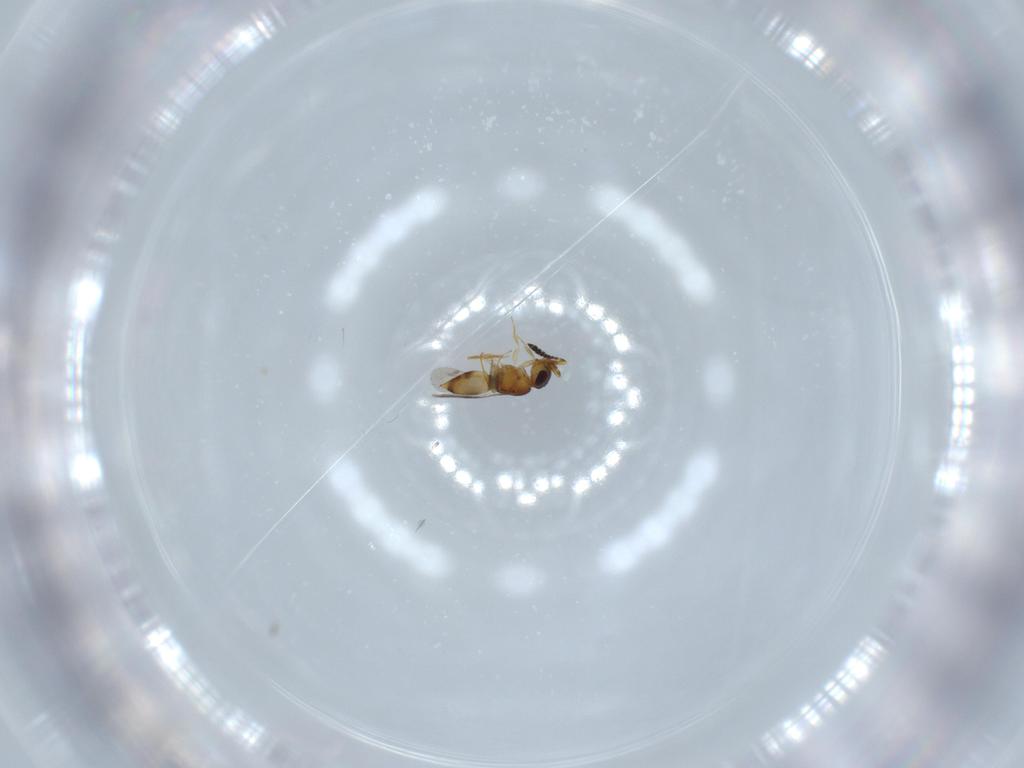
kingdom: Animalia
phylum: Arthropoda
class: Insecta
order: Hymenoptera
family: Ceraphronidae
